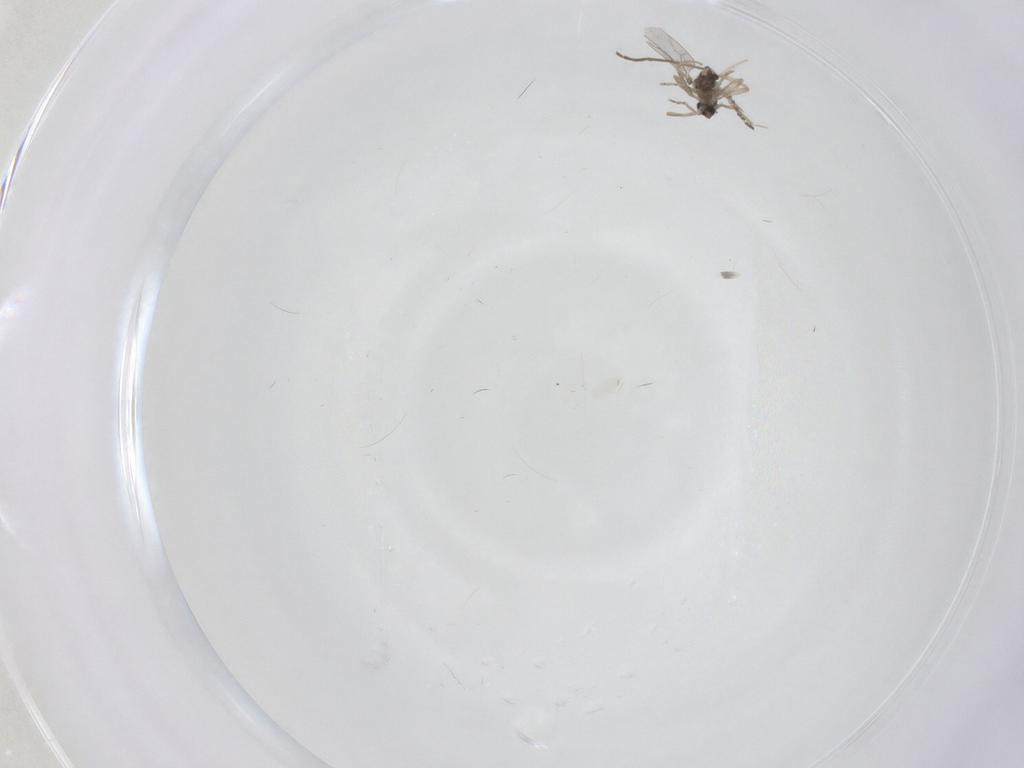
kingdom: Animalia
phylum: Arthropoda
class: Insecta
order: Diptera
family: Cecidomyiidae
